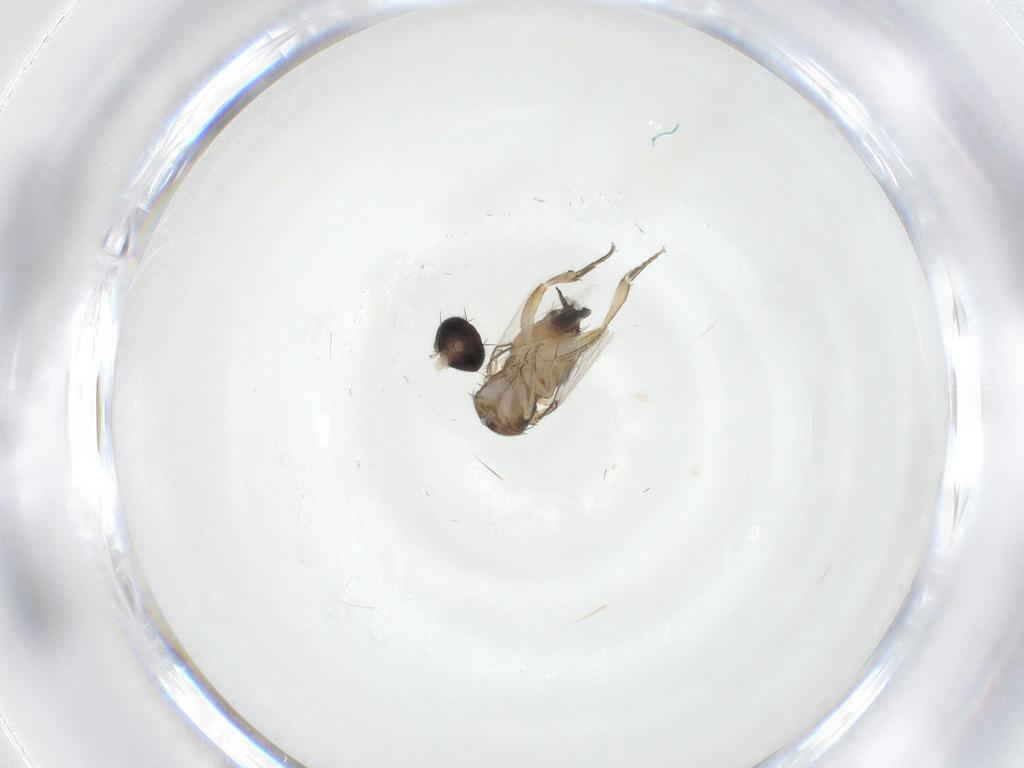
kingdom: Animalia
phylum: Arthropoda
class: Insecta
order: Diptera
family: Phoridae
